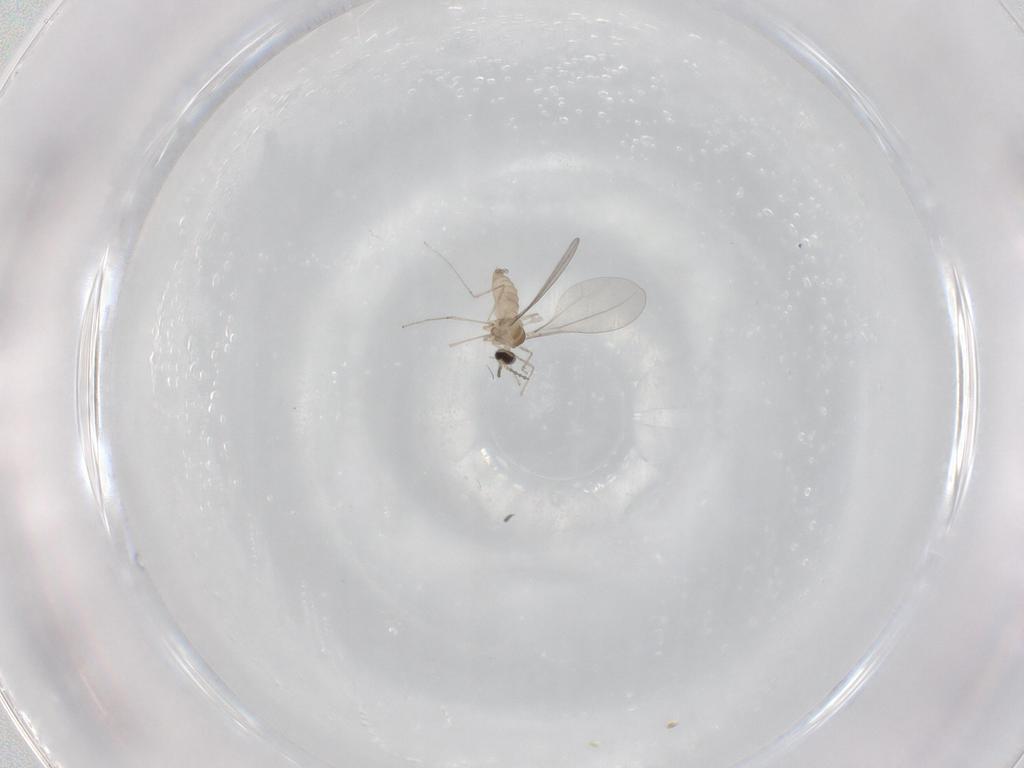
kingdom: Animalia
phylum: Arthropoda
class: Insecta
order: Diptera
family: Cecidomyiidae
